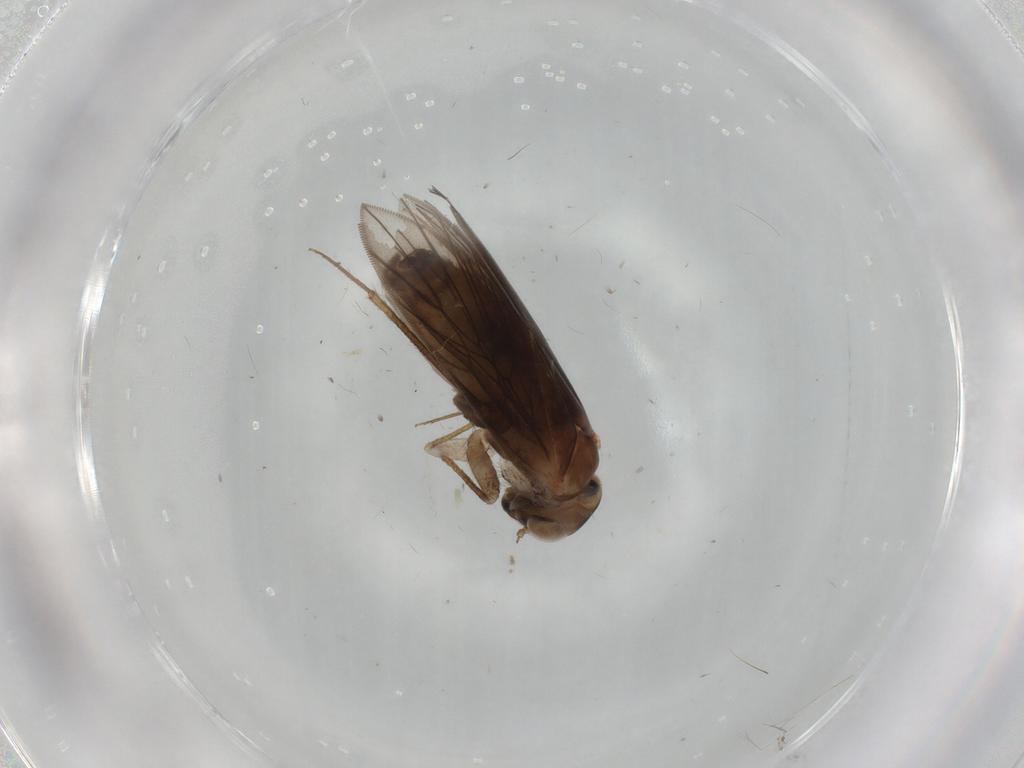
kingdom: Animalia
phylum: Arthropoda
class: Insecta
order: Psocodea
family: Lepidopsocidae
